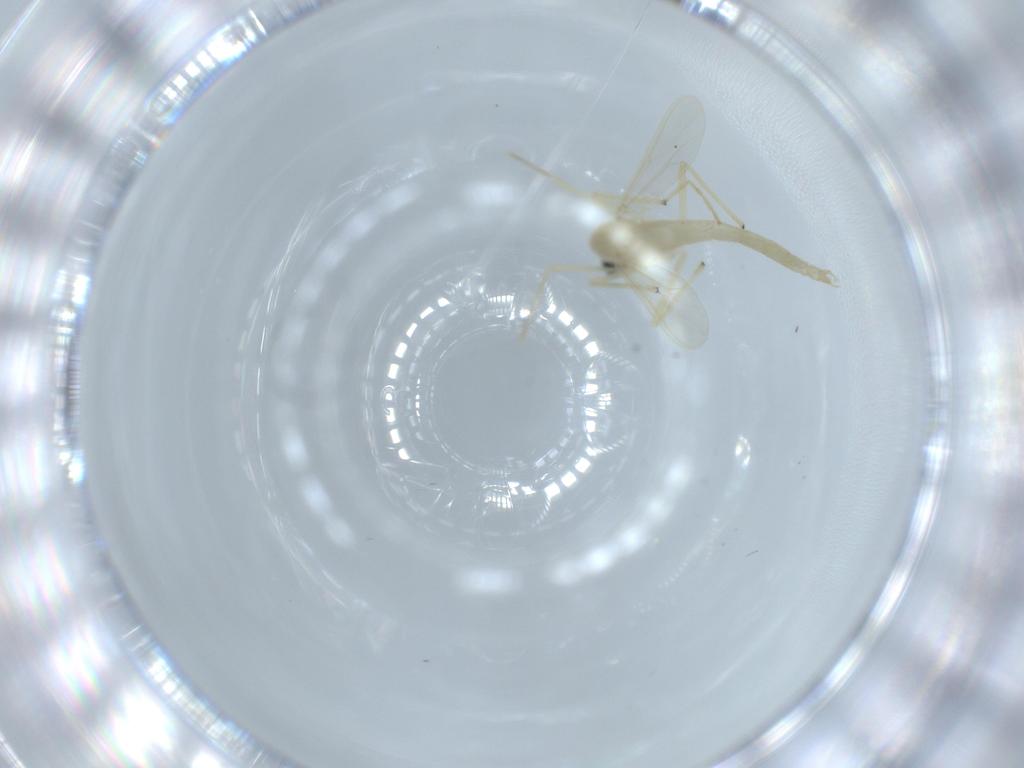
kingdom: Animalia
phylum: Arthropoda
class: Insecta
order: Diptera
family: Chironomidae
